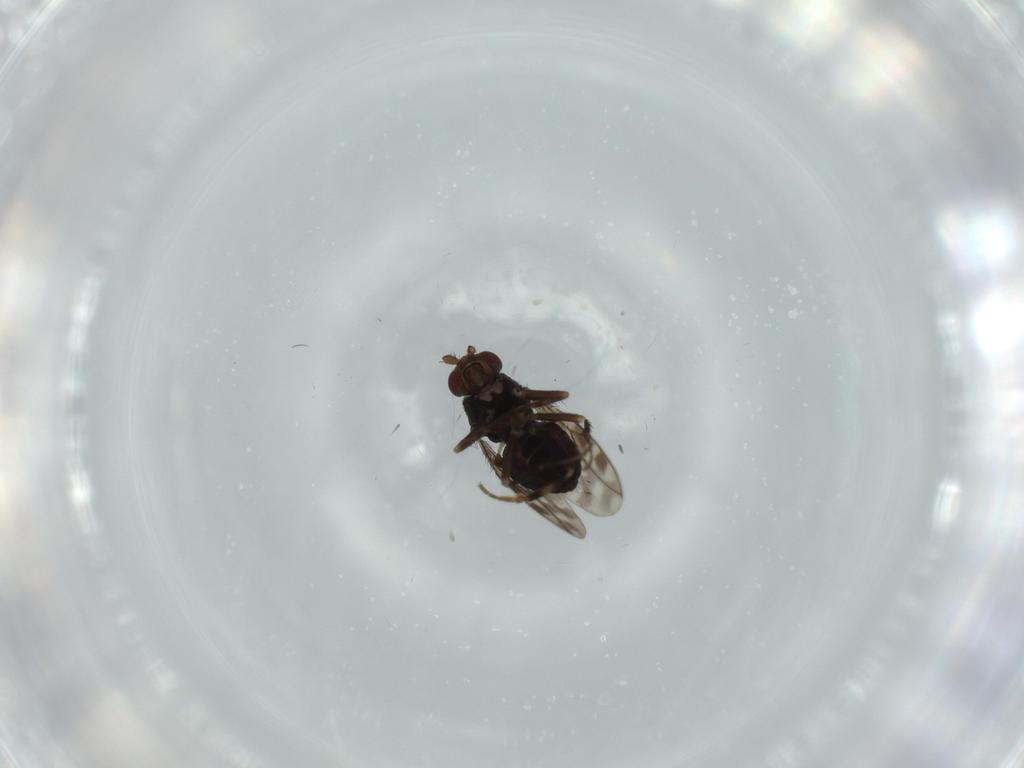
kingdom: Animalia
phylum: Arthropoda
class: Insecta
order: Diptera
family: Sphaeroceridae
